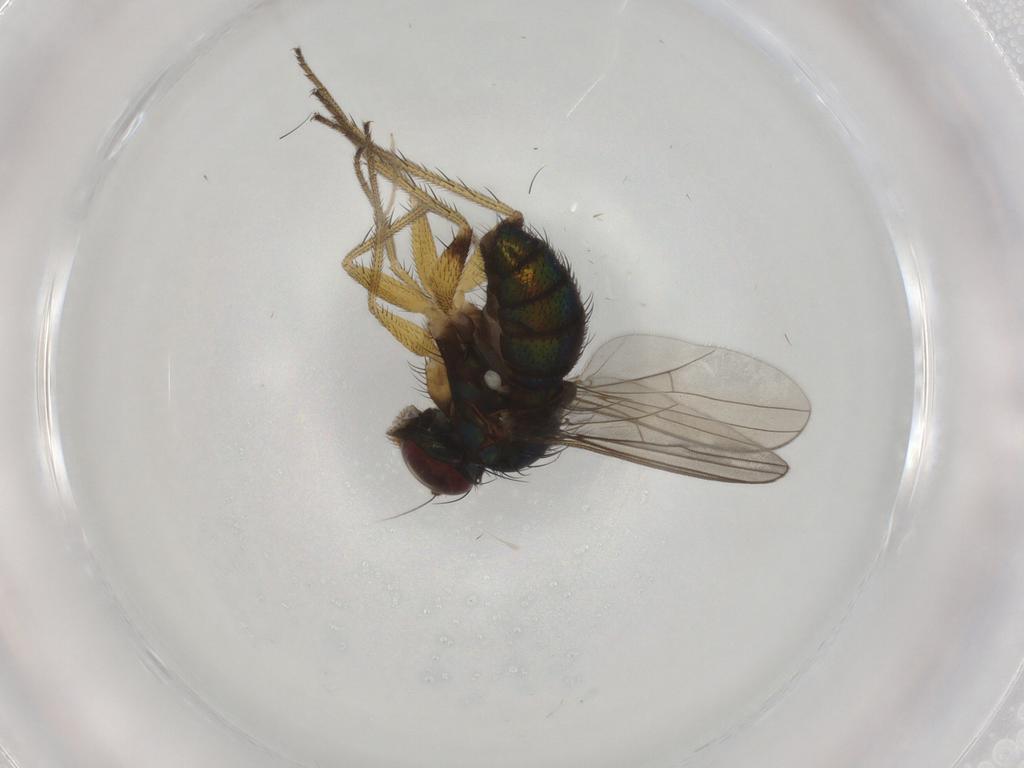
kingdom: Animalia
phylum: Arthropoda
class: Insecta
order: Diptera
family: Dolichopodidae
